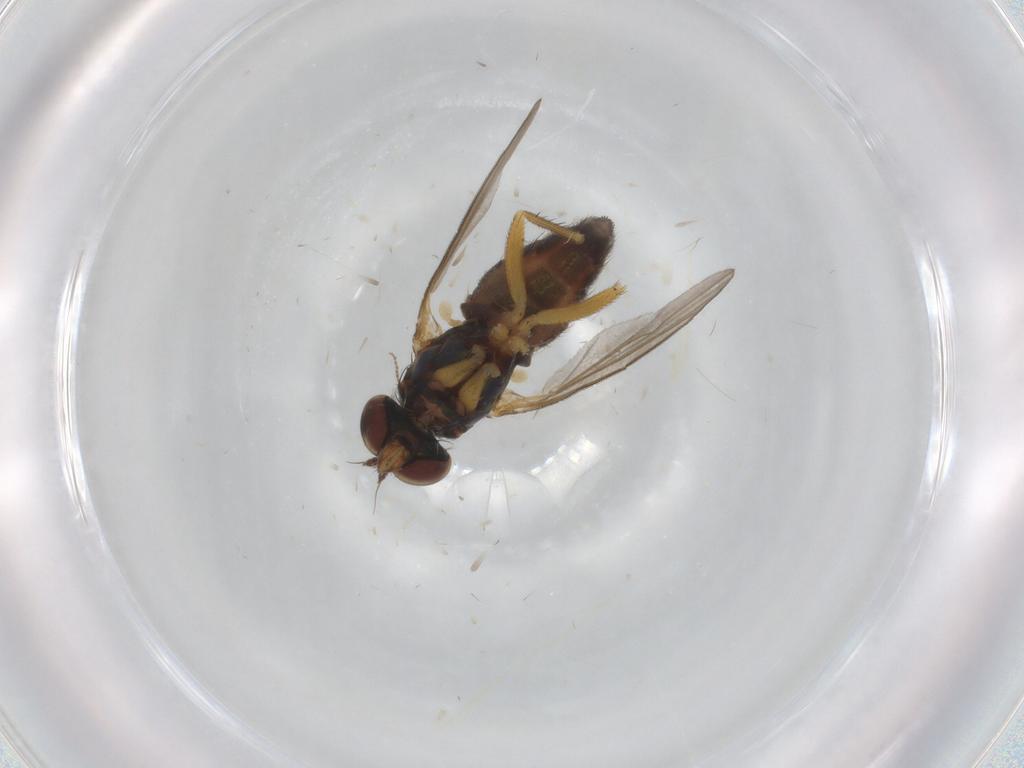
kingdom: Animalia
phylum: Arthropoda
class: Insecta
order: Diptera
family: Dolichopodidae
